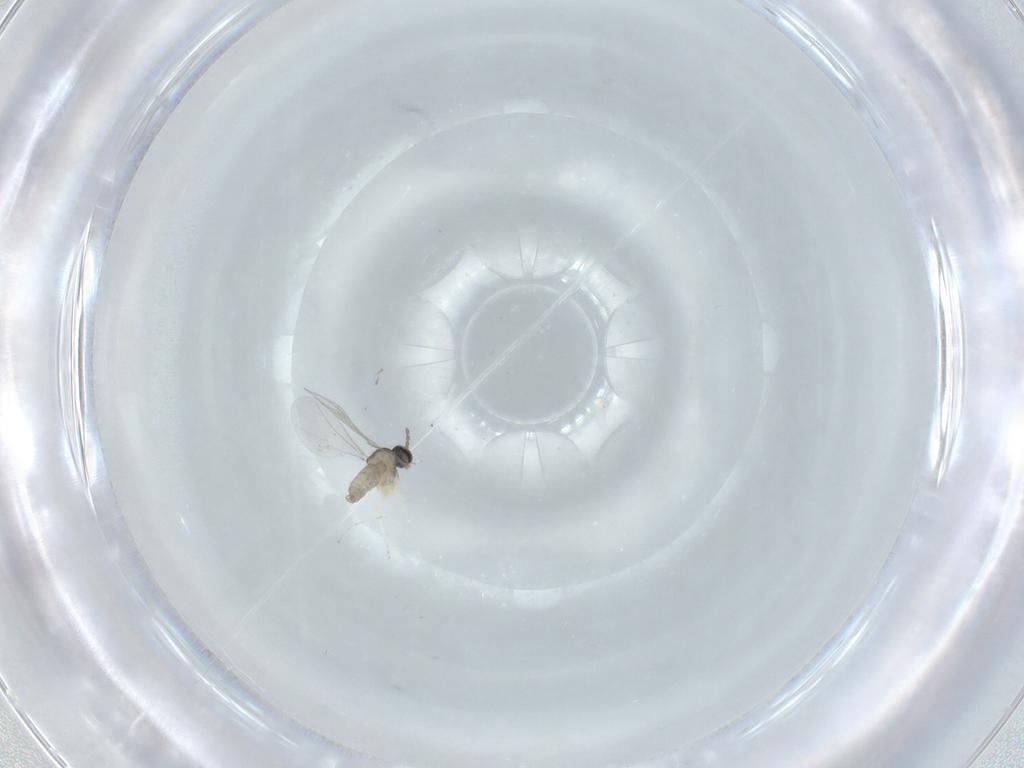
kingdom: Animalia
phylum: Arthropoda
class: Insecta
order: Diptera
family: Cecidomyiidae
